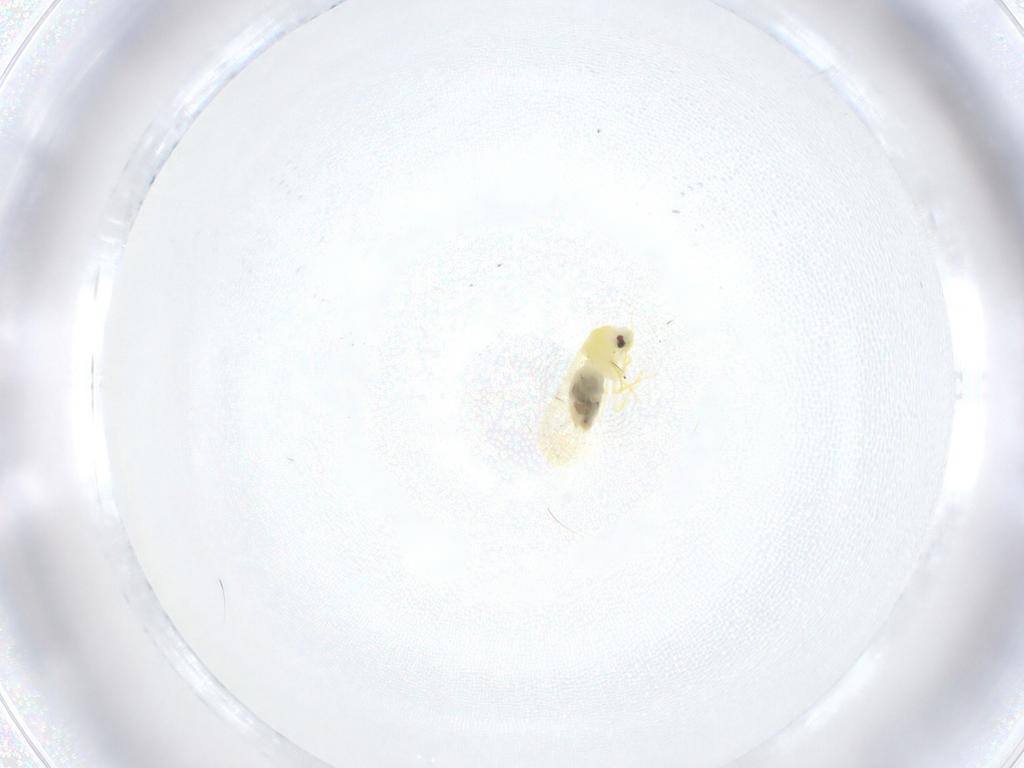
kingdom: Animalia
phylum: Arthropoda
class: Insecta
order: Hemiptera
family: Aleyrodidae
